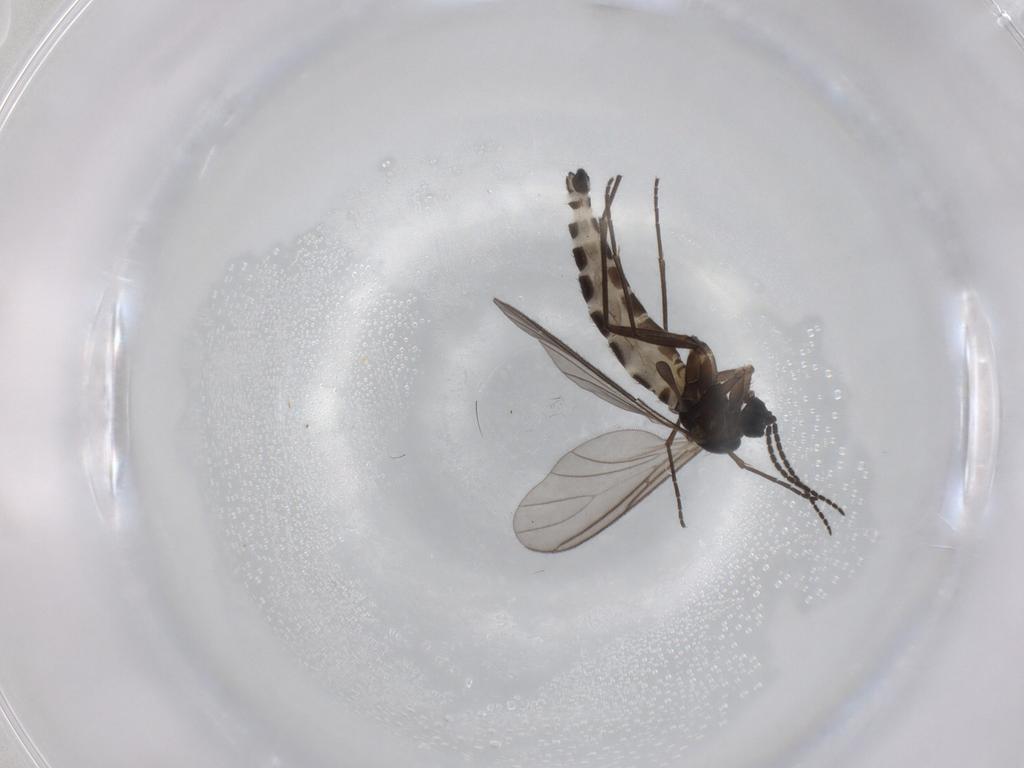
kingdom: Animalia
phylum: Arthropoda
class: Insecta
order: Diptera
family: Sciaridae
